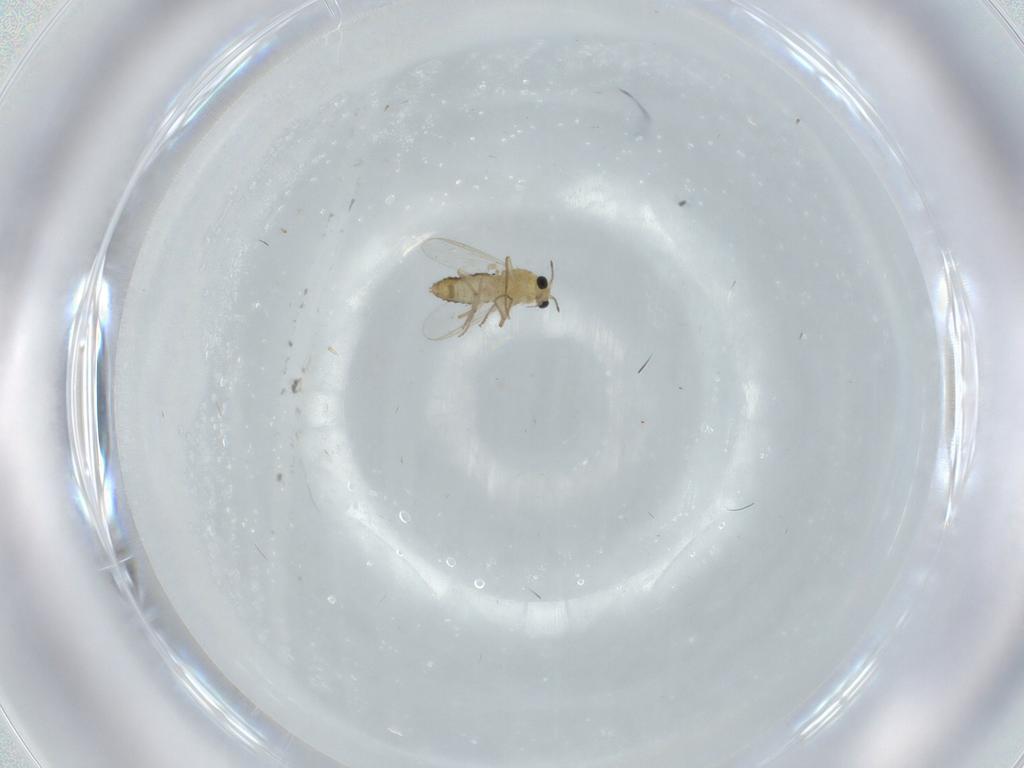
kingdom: Animalia
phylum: Arthropoda
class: Insecta
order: Diptera
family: Chironomidae
